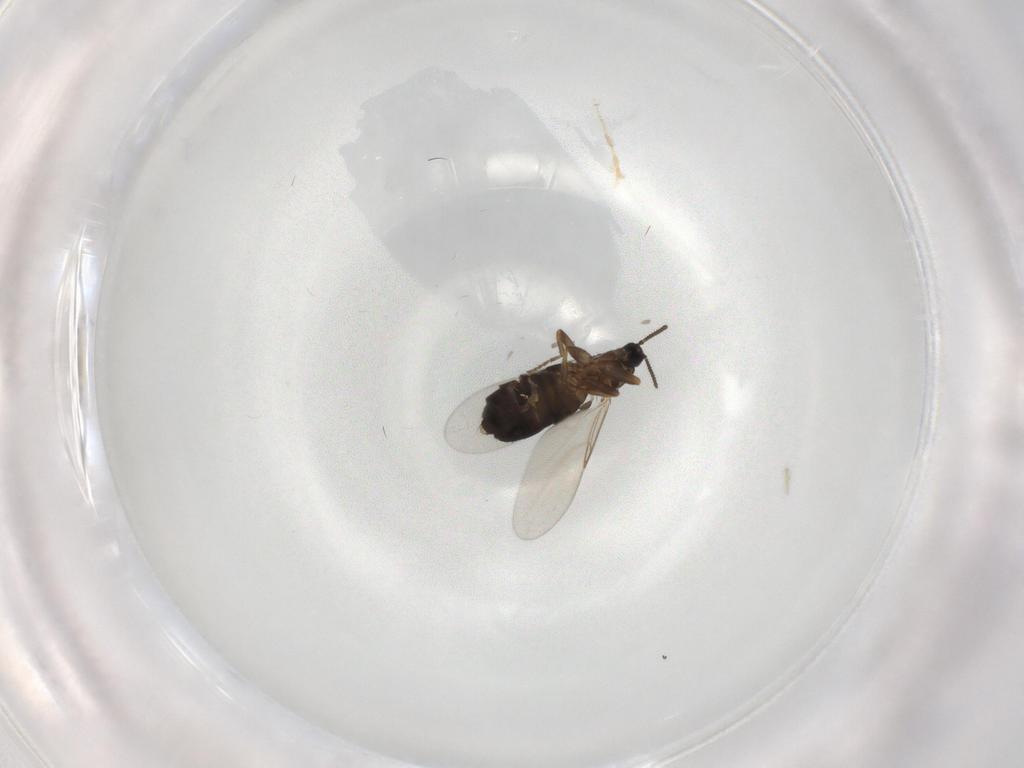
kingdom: Animalia
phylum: Arthropoda
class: Insecta
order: Diptera
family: Scatopsidae
